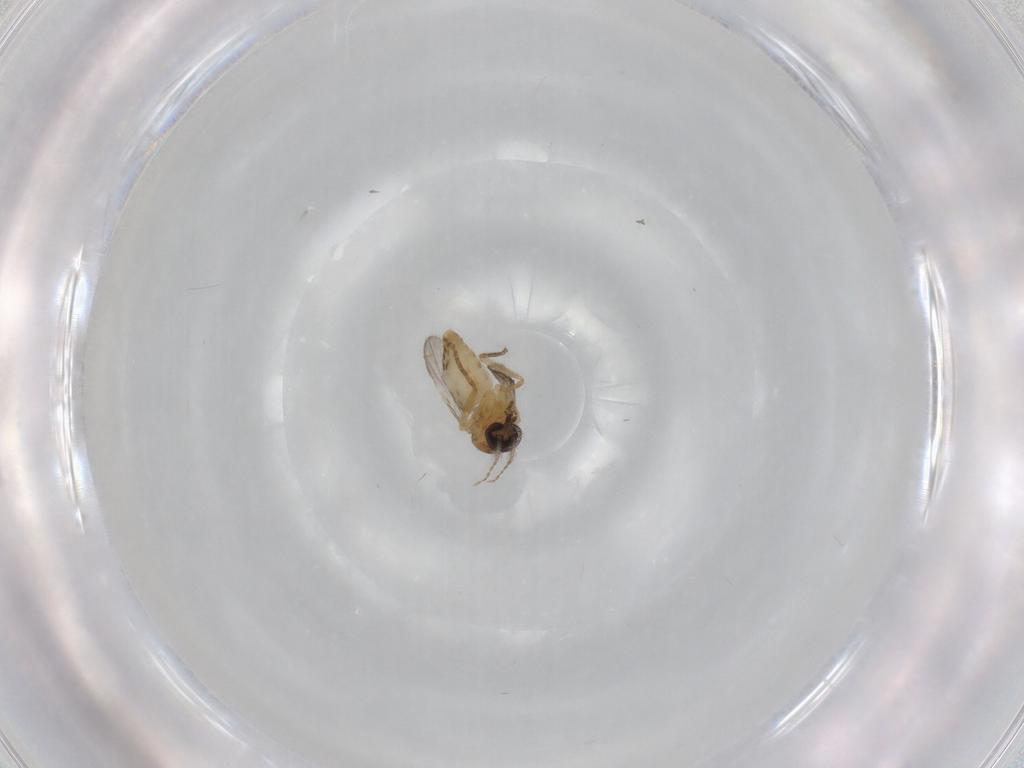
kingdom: Animalia
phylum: Arthropoda
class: Insecta
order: Diptera
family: Ceratopogonidae
